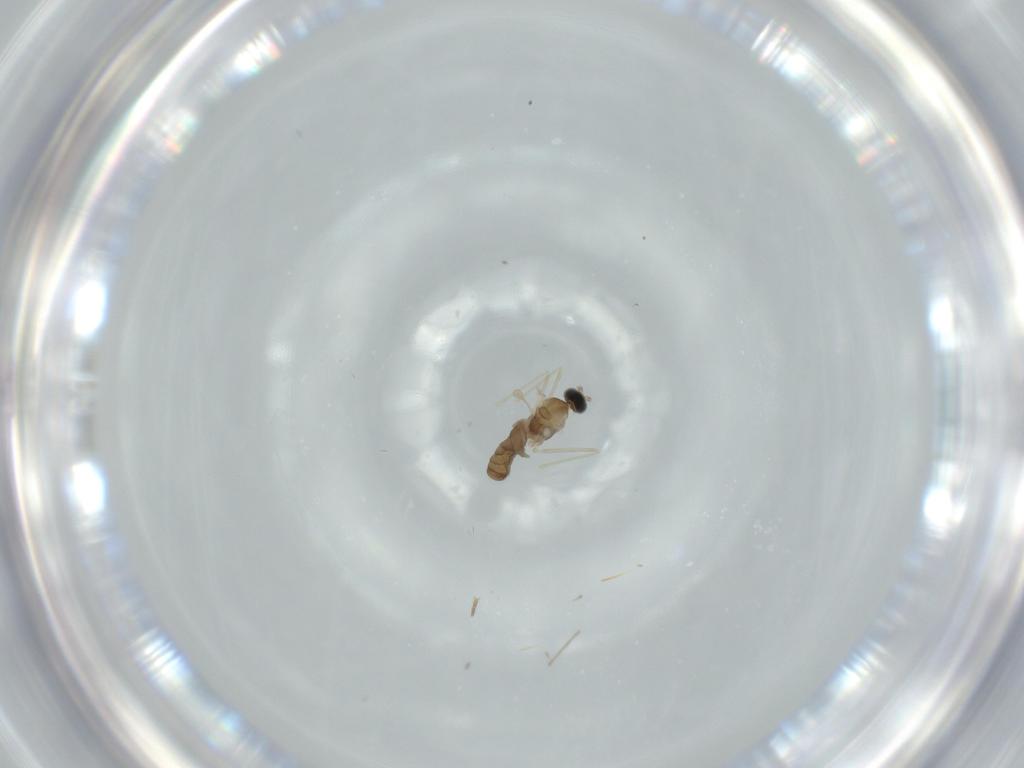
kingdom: Animalia
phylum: Arthropoda
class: Insecta
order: Diptera
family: Cecidomyiidae
